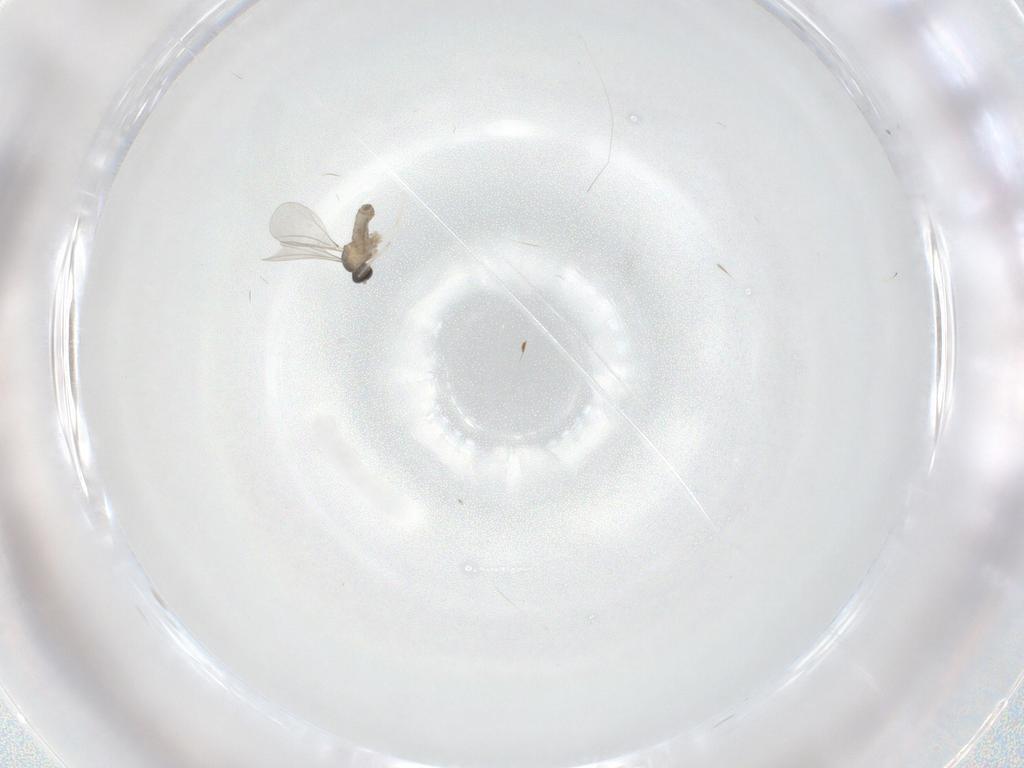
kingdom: Animalia
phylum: Arthropoda
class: Insecta
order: Diptera
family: Cecidomyiidae
